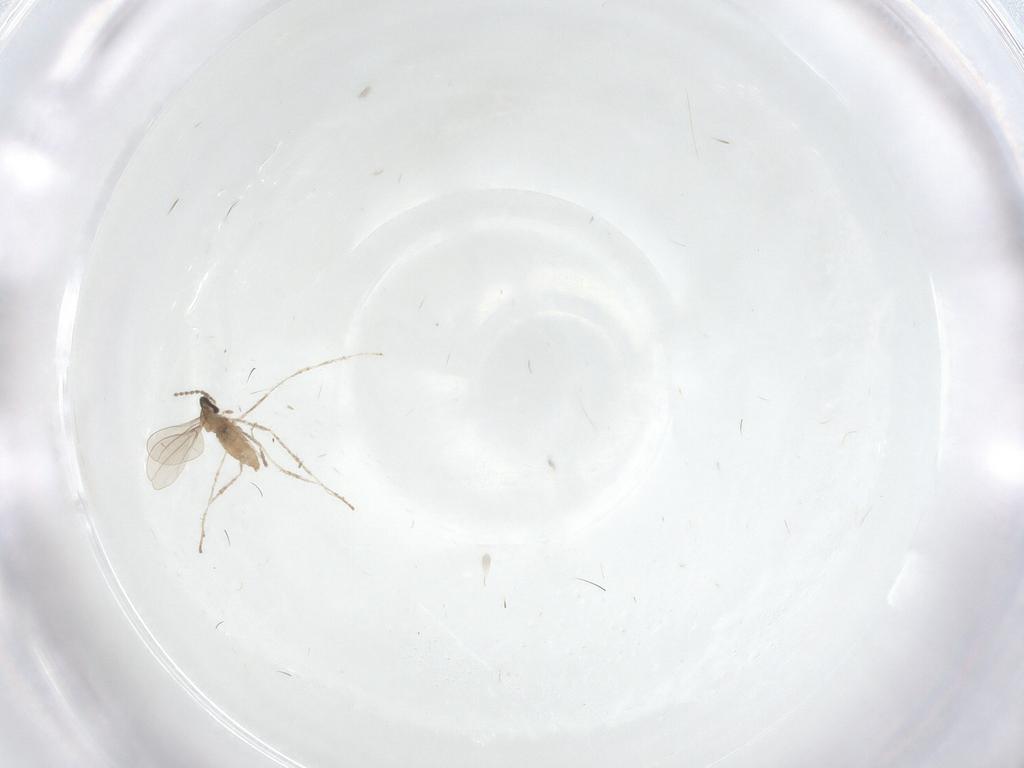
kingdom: Animalia
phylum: Arthropoda
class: Insecta
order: Diptera
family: Cecidomyiidae
